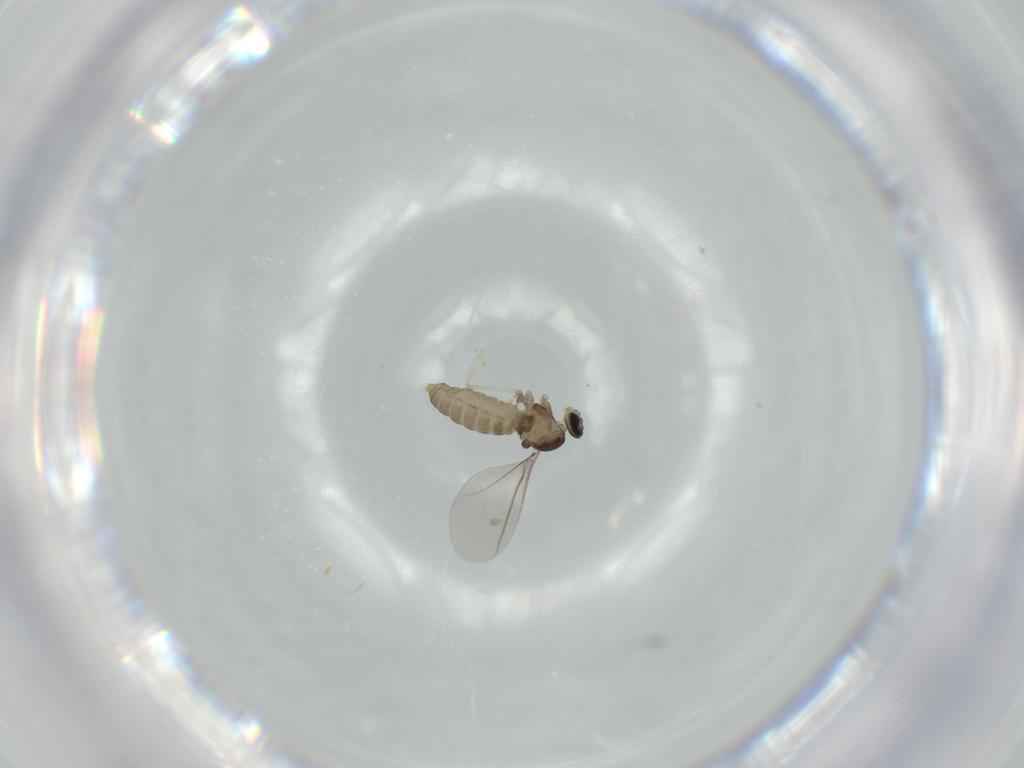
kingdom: Animalia
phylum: Arthropoda
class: Insecta
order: Diptera
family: Cecidomyiidae
